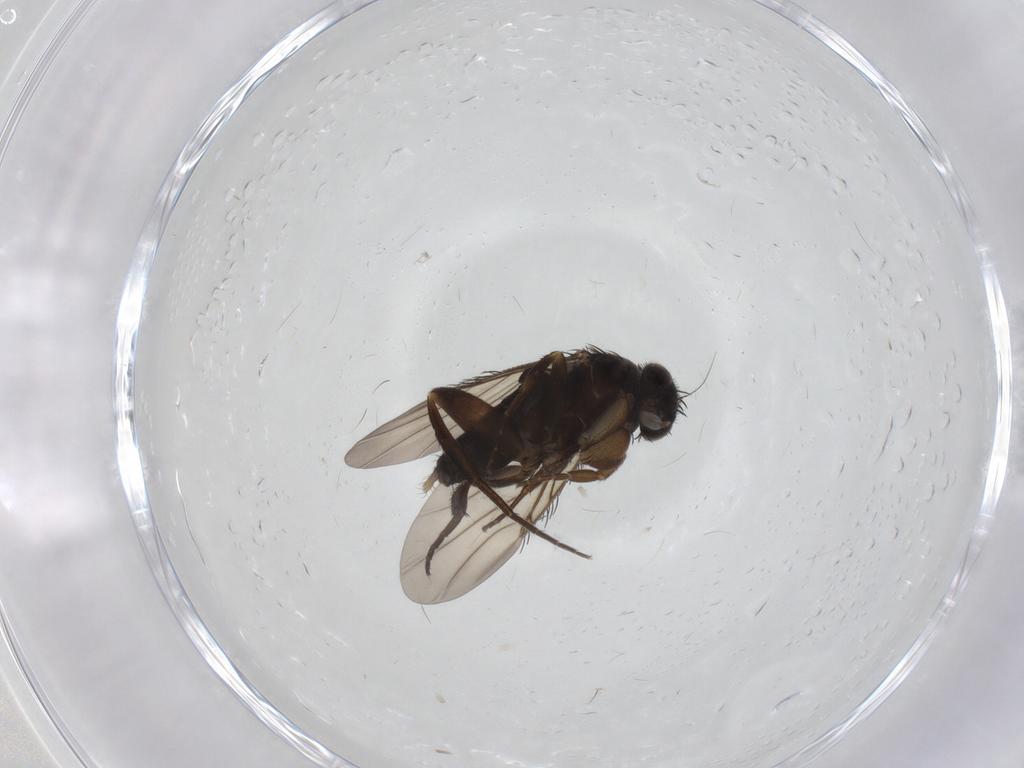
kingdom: Animalia
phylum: Arthropoda
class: Insecta
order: Diptera
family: Phoridae
